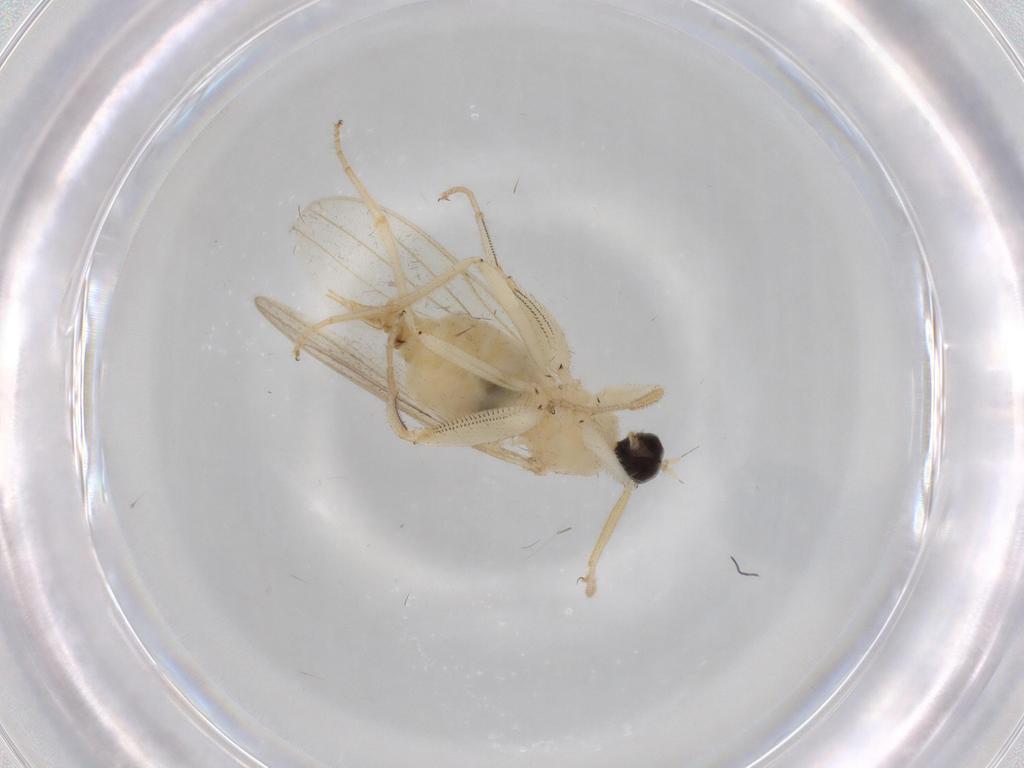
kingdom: Animalia
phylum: Arthropoda
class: Insecta
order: Diptera
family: Hybotidae
